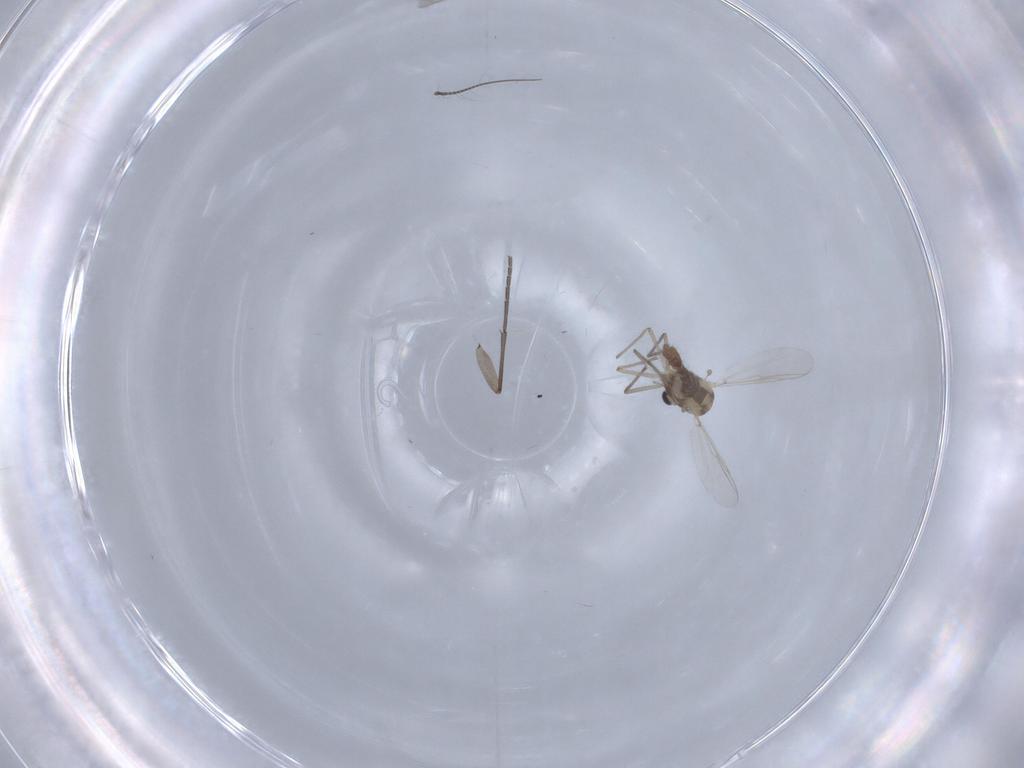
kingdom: Animalia
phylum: Arthropoda
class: Insecta
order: Diptera
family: Chironomidae
